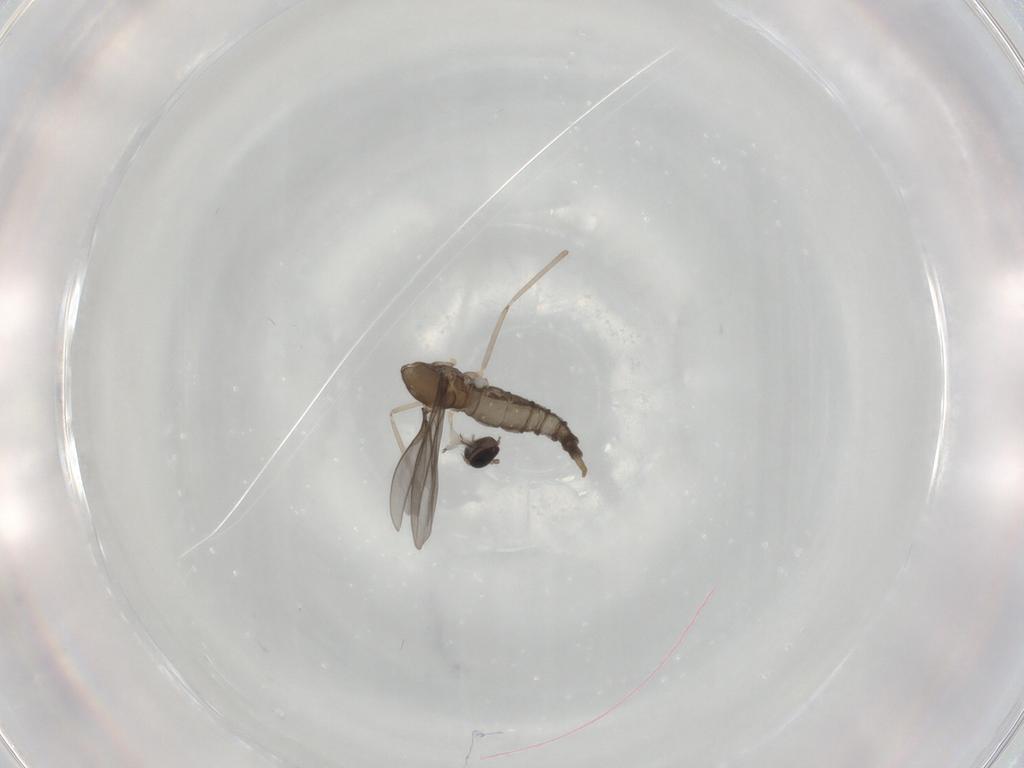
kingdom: Animalia
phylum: Arthropoda
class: Insecta
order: Diptera
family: Cecidomyiidae
